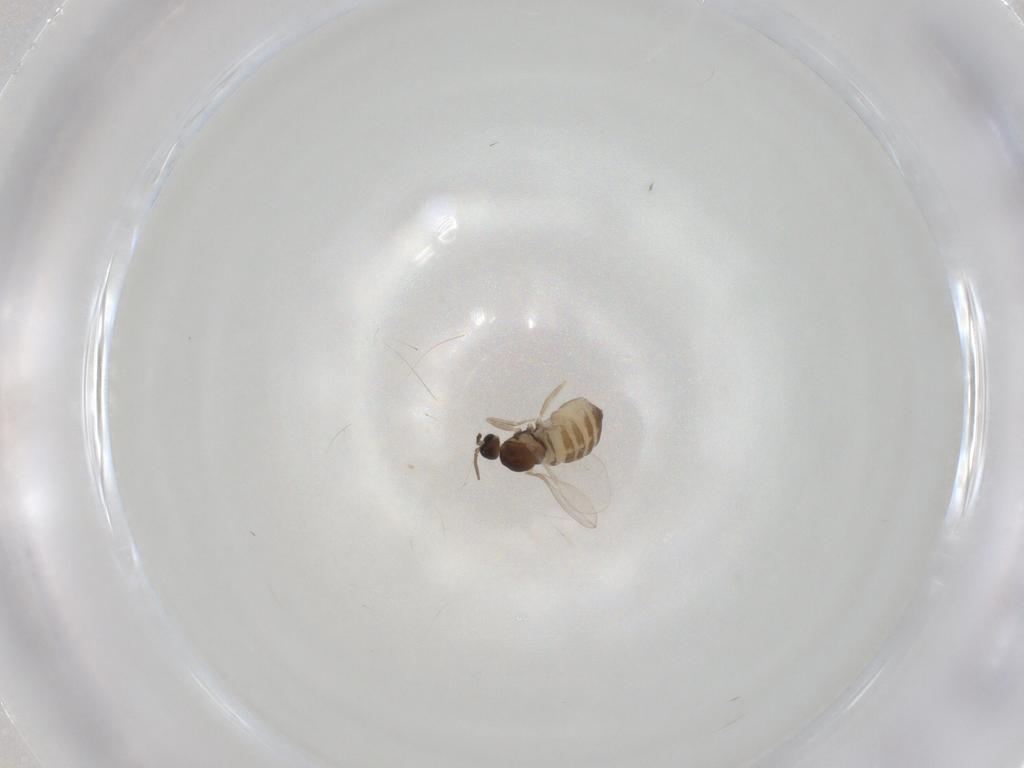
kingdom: Animalia
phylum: Arthropoda
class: Insecta
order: Diptera
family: Cecidomyiidae
